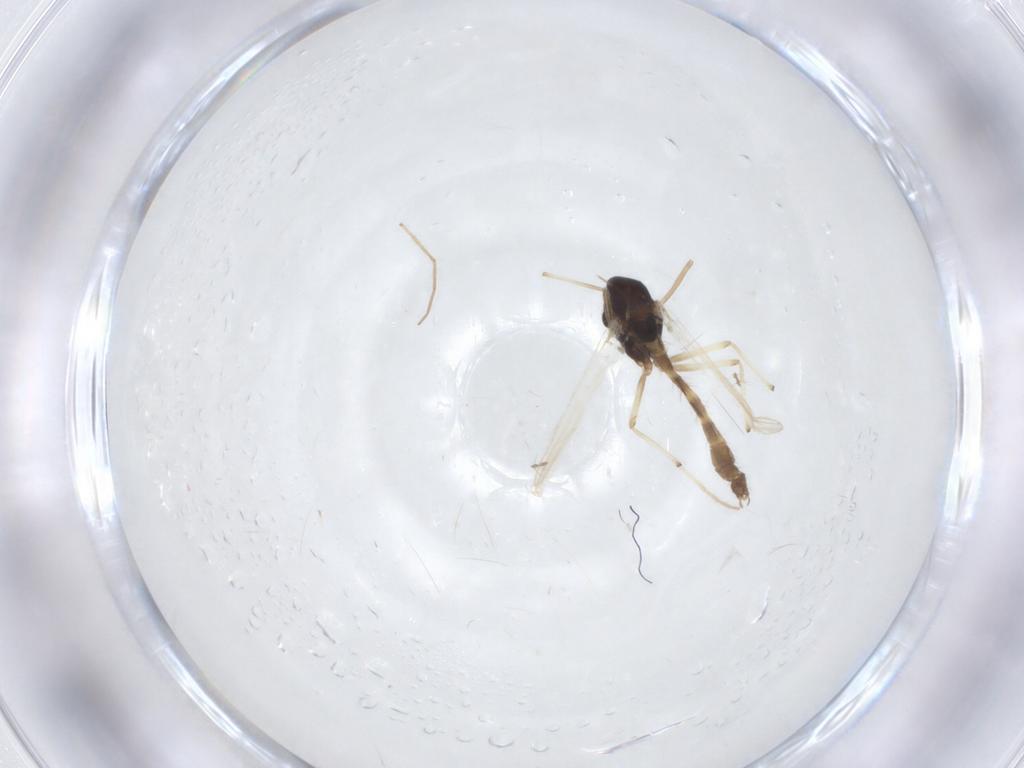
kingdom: Animalia
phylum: Arthropoda
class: Insecta
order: Diptera
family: Chironomidae
